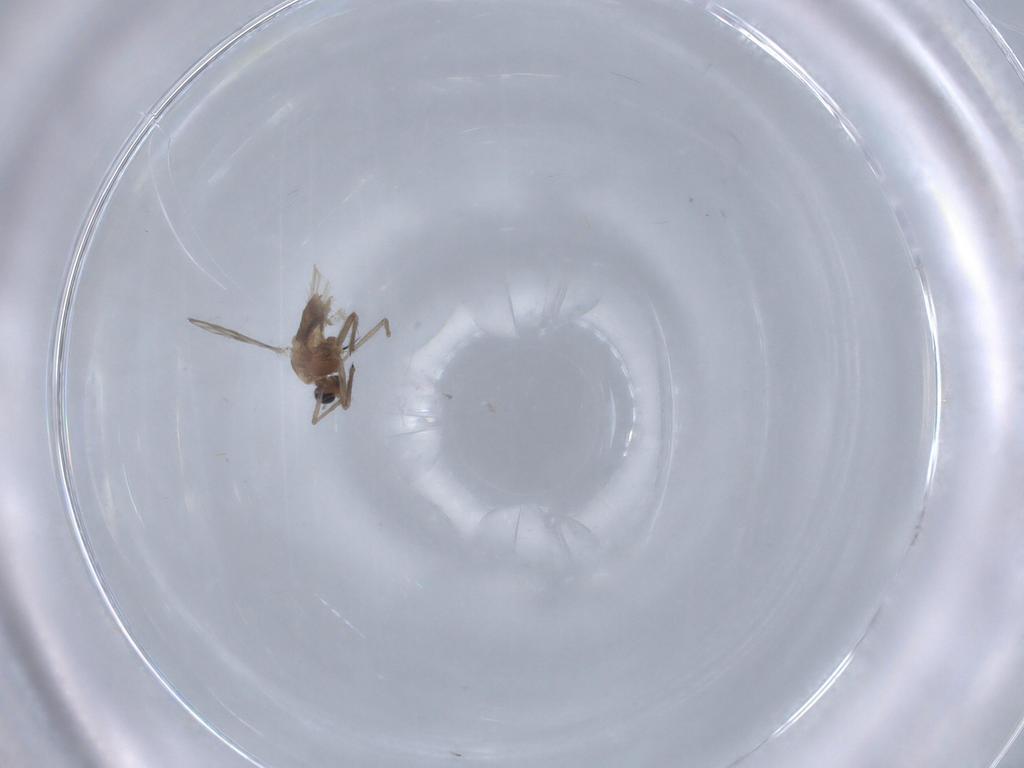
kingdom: Animalia
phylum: Arthropoda
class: Insecta
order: Diptera
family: Chironomidae
